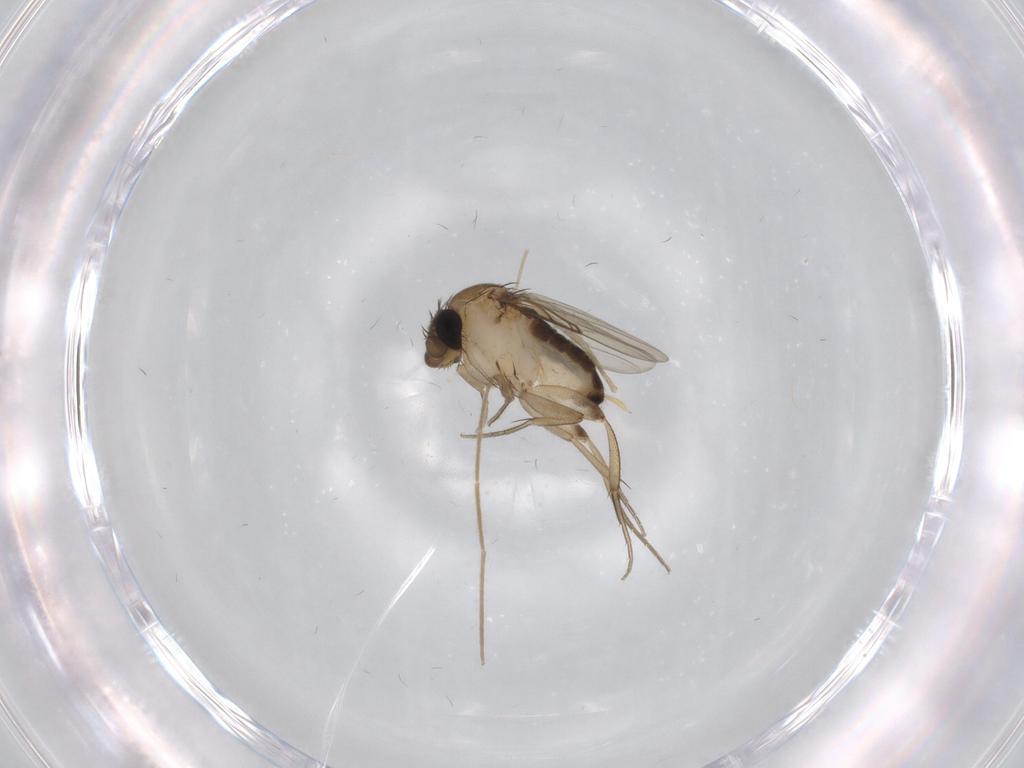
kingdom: Animalia
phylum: Arthropoda
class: Insecta
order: Diptera
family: Phoridae
